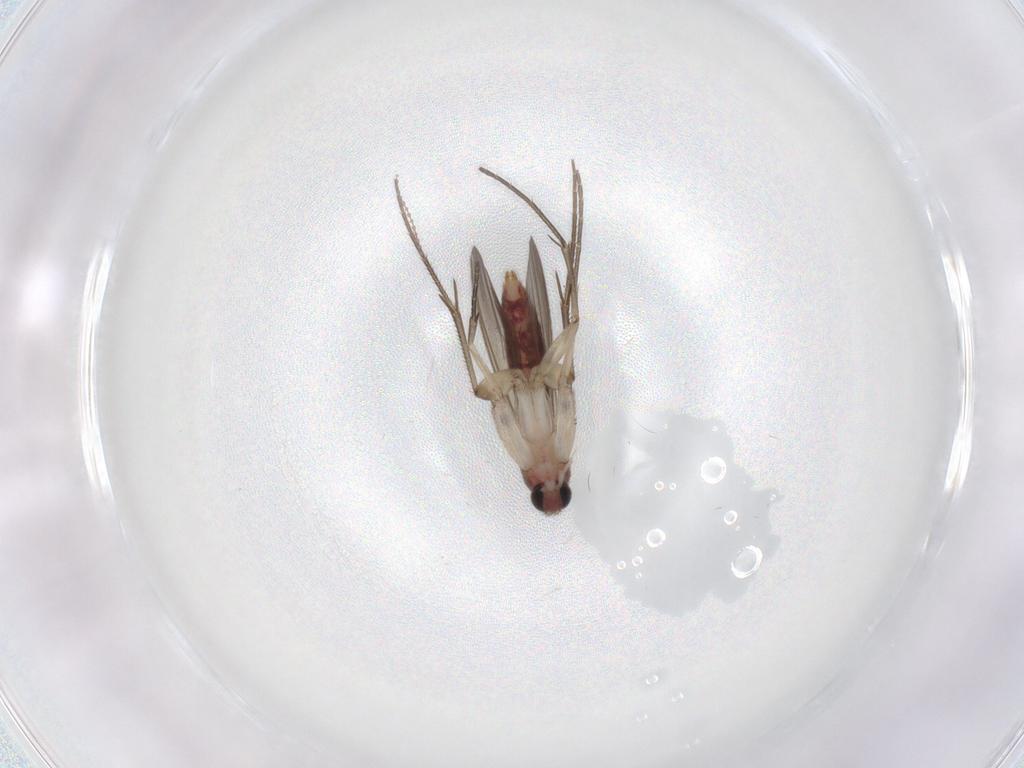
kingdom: Animalia
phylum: Arthropoda
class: Insecta
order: Diptera
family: Mycetophilidae
